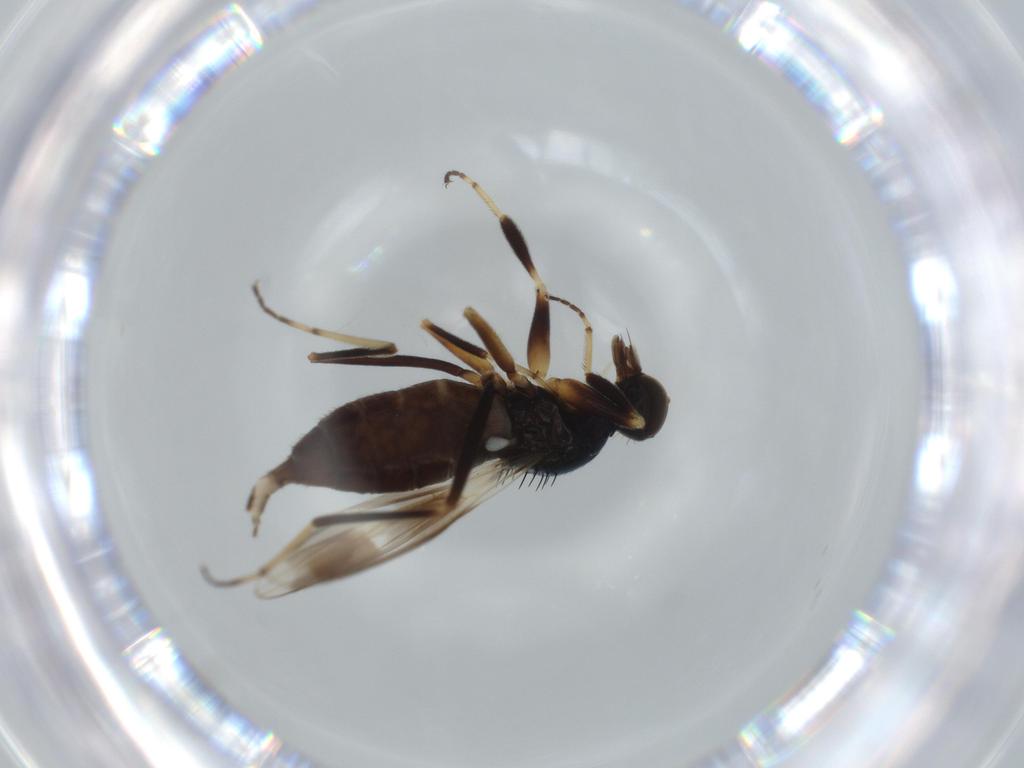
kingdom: Animalia
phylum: Arthropoda
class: Insecta
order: Diptera
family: Hybotidae
